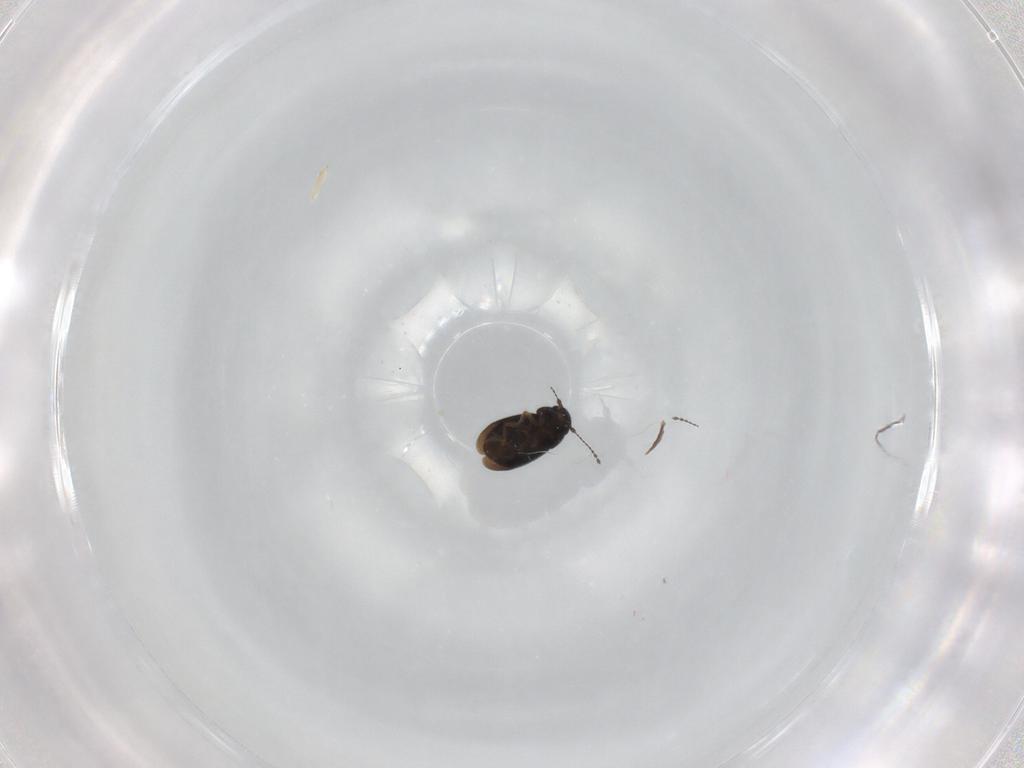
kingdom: Animalia
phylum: Arthropoda
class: Insecta
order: Coleoptera
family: Ptiliidae
